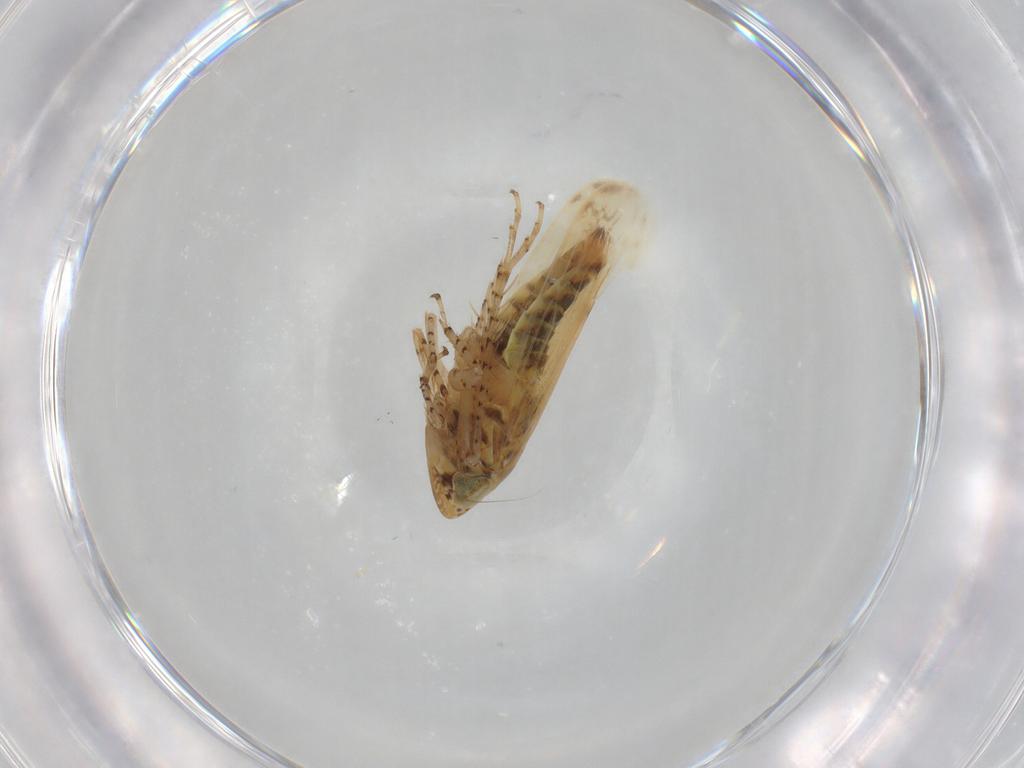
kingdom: Animalia
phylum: Arthropoda
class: Insecta
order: Hemiptera
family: Cicadellidae
